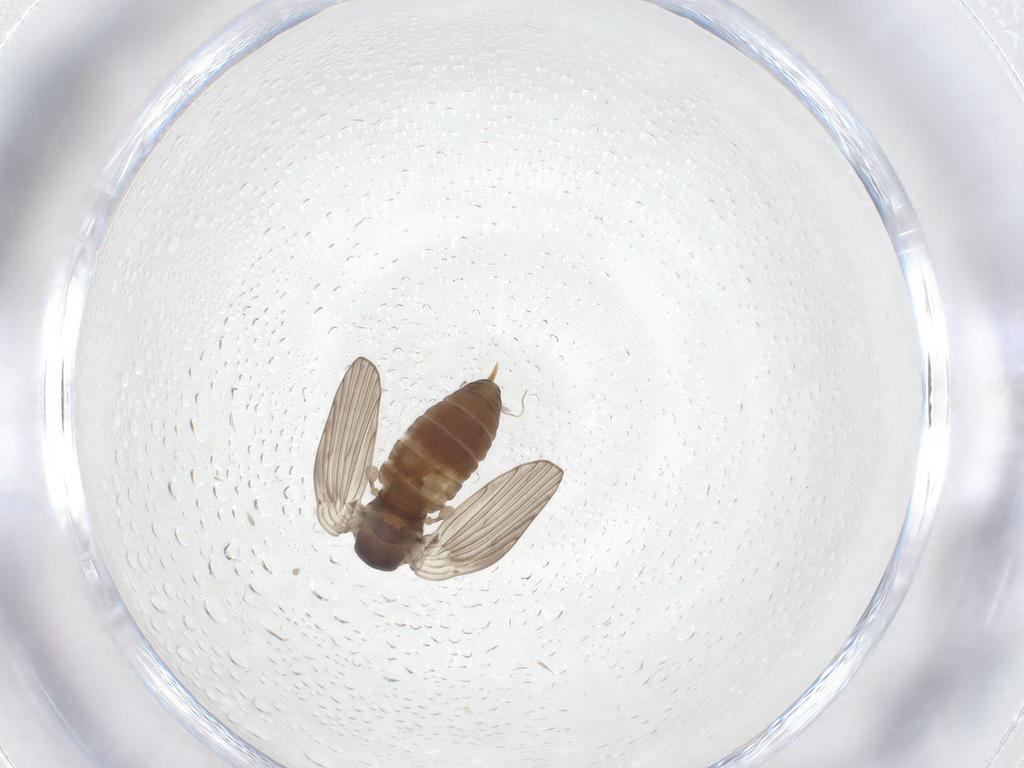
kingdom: Animalia
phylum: Arthropoda
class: Insecta
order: Diptera
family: Psychodidae
